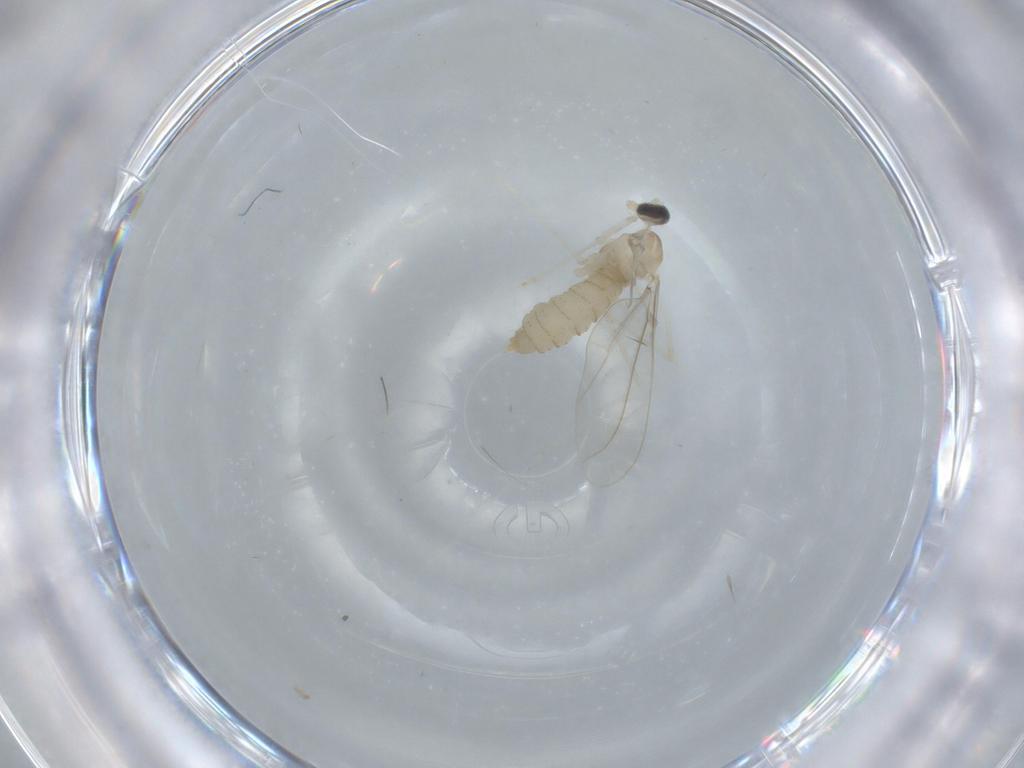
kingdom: Animalia
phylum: Arthropoda
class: Insecta
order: Diptera
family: Cecidomyiidae
